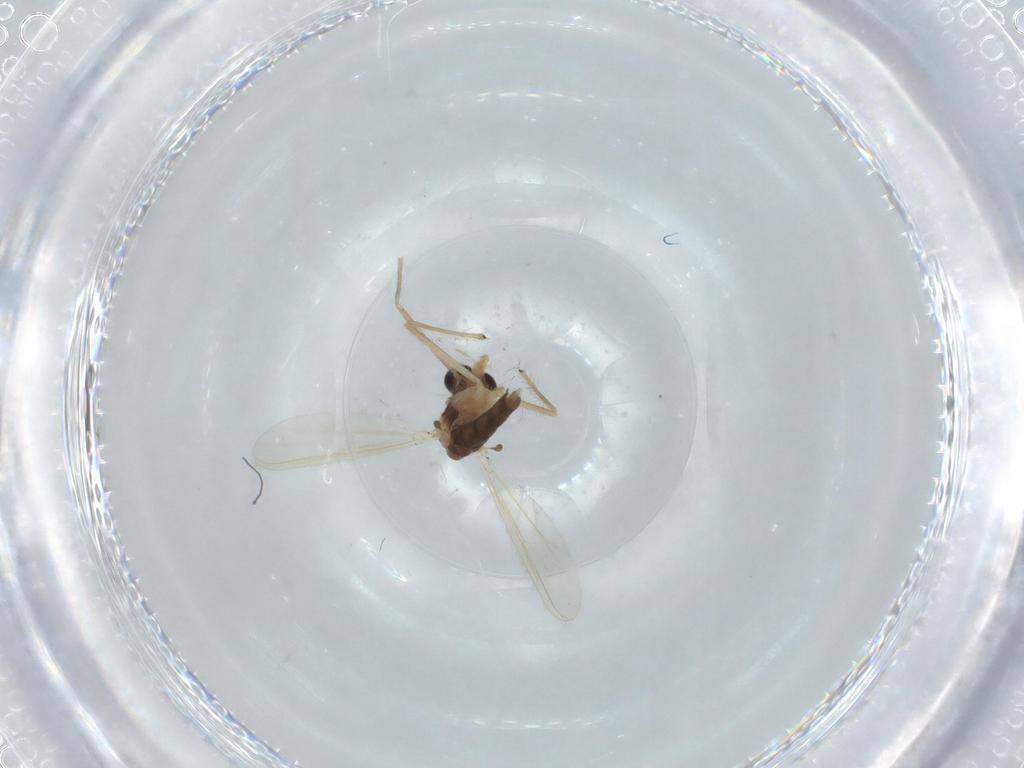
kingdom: Animalia
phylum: Arthropoda
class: Insecta
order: Diptera
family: Chironomidae
